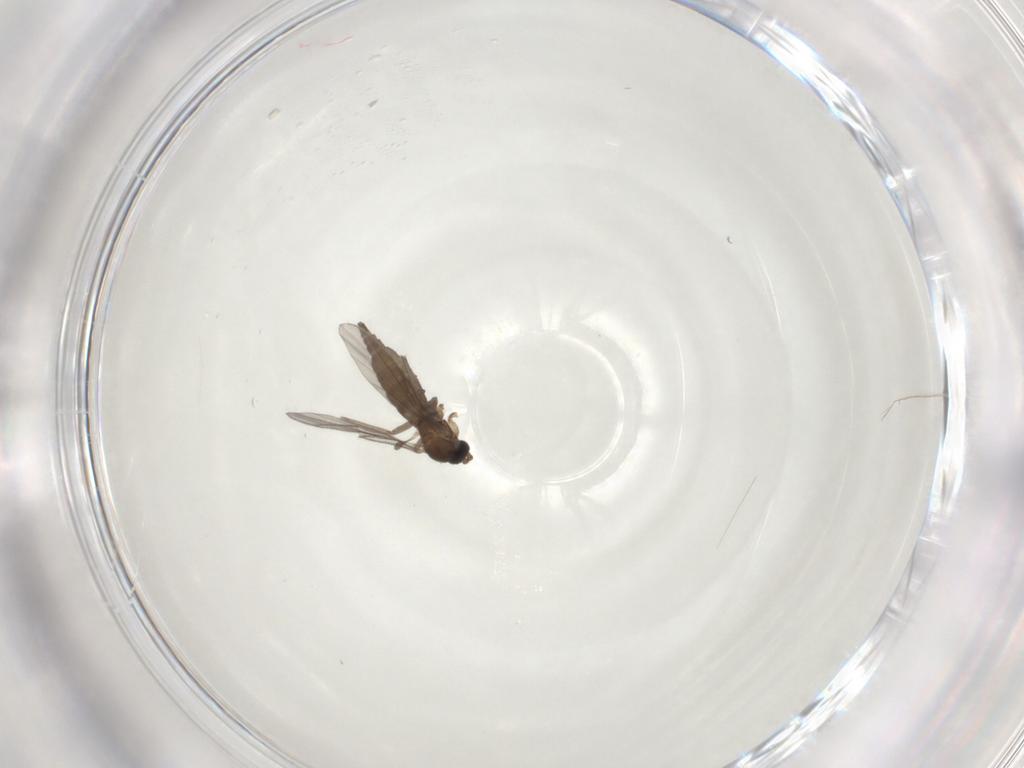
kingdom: Animalia
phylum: Arthropoda
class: Insecta
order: Diptera
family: Sciaridae
